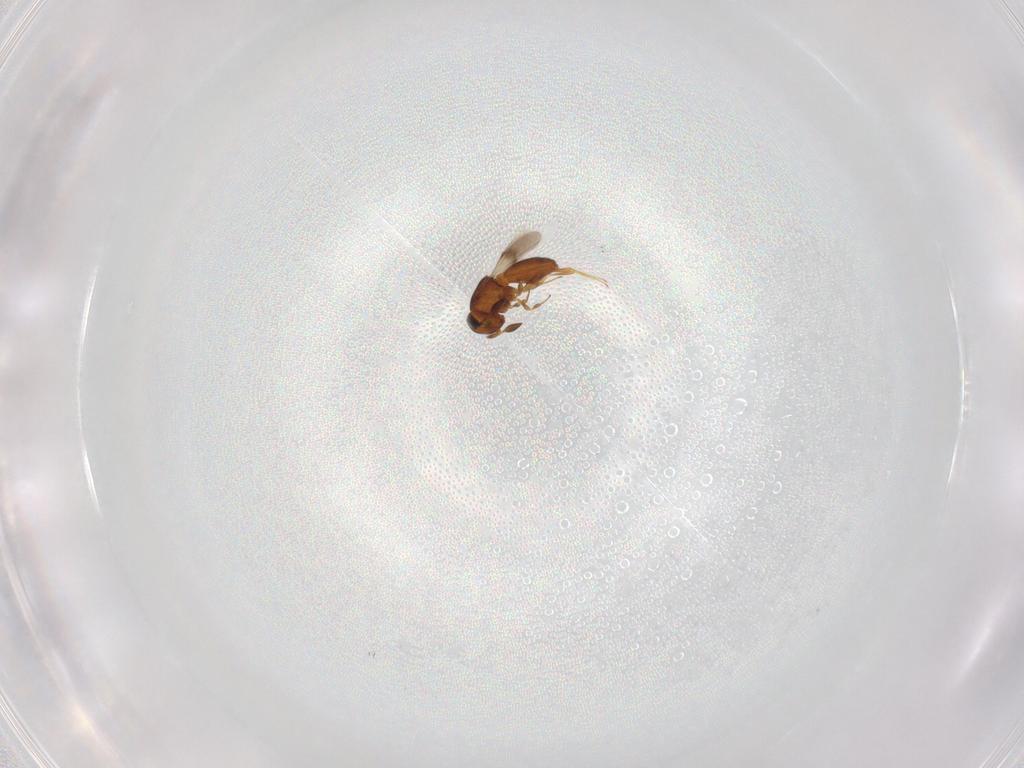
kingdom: Animalia
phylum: Arthropoda
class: Insecta
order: Hymenoptera
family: Scelionidae
